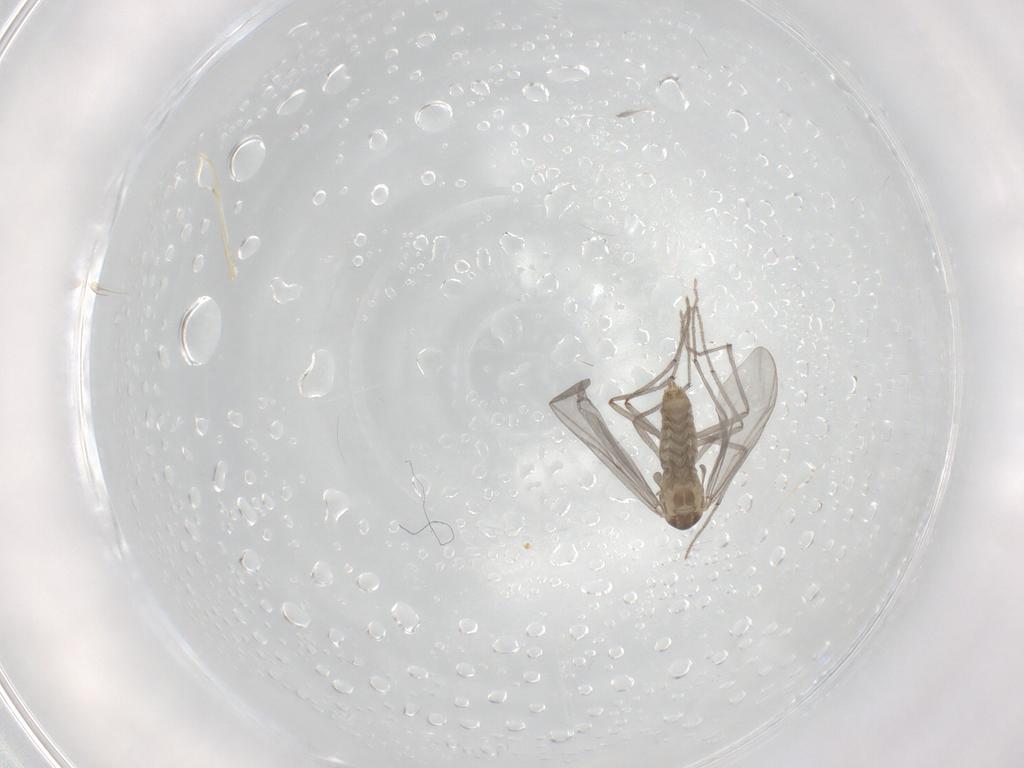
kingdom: Animalia
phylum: Arthropoda
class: Insecta
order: Diptera
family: Chironomidae
